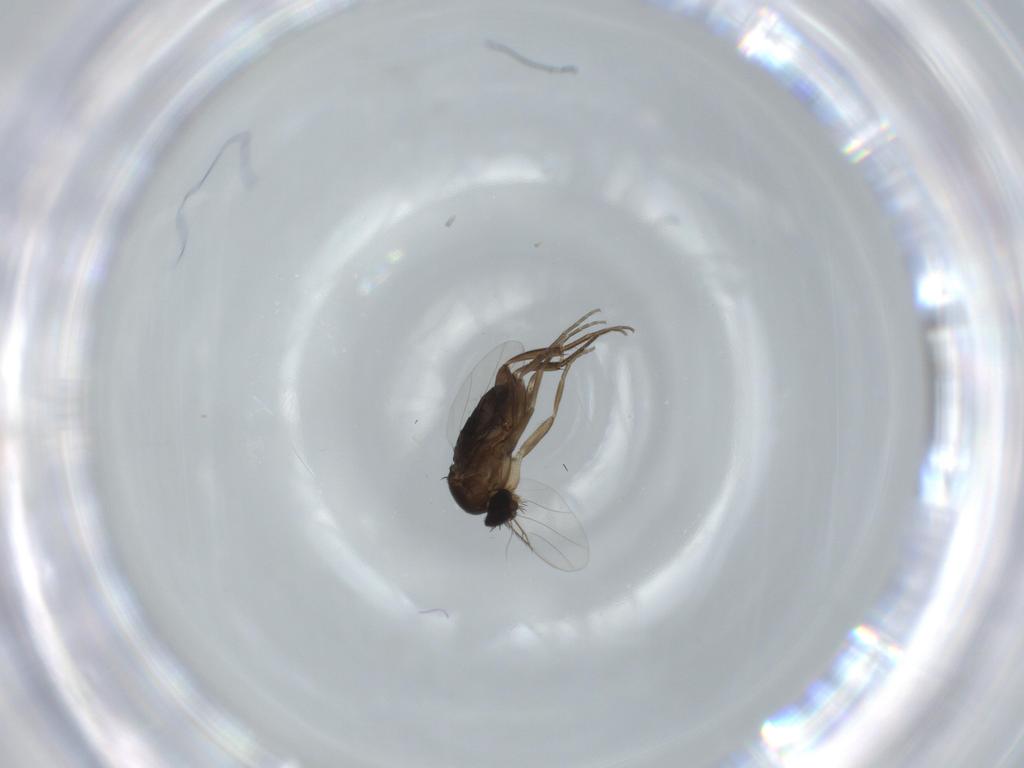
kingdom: Animalia
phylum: Arthropoda
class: Insecta
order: Diptera
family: Phoridae
